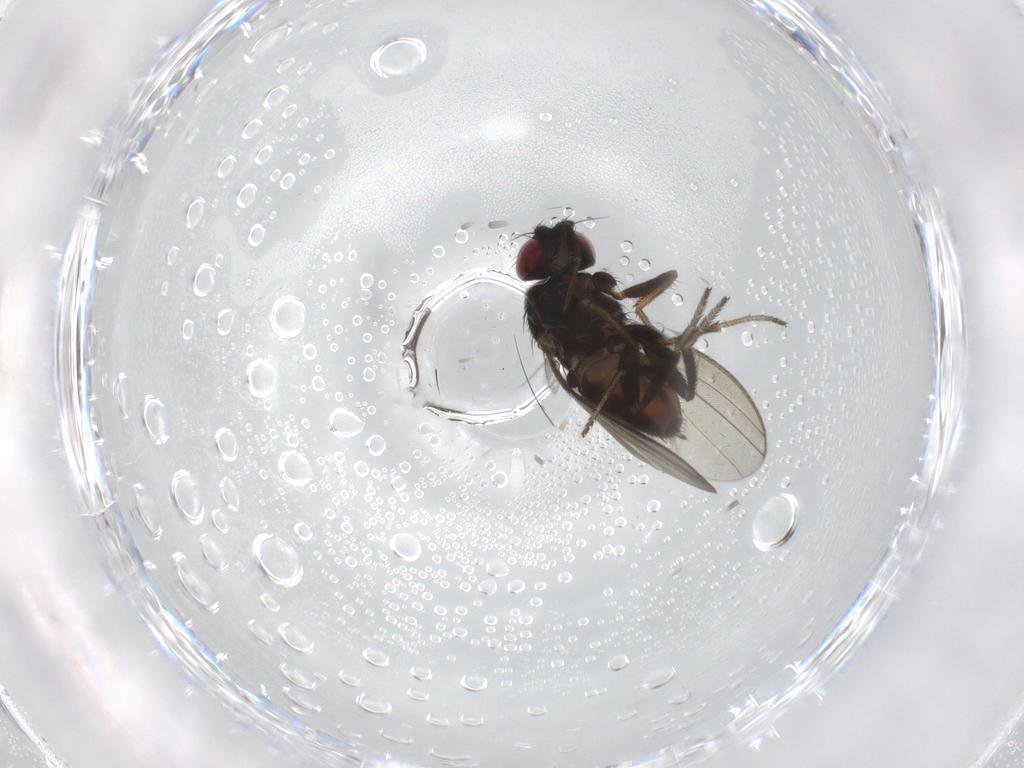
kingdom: Animalia
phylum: Arthropoda
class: Insecta
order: Diptera
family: Milichiidae
